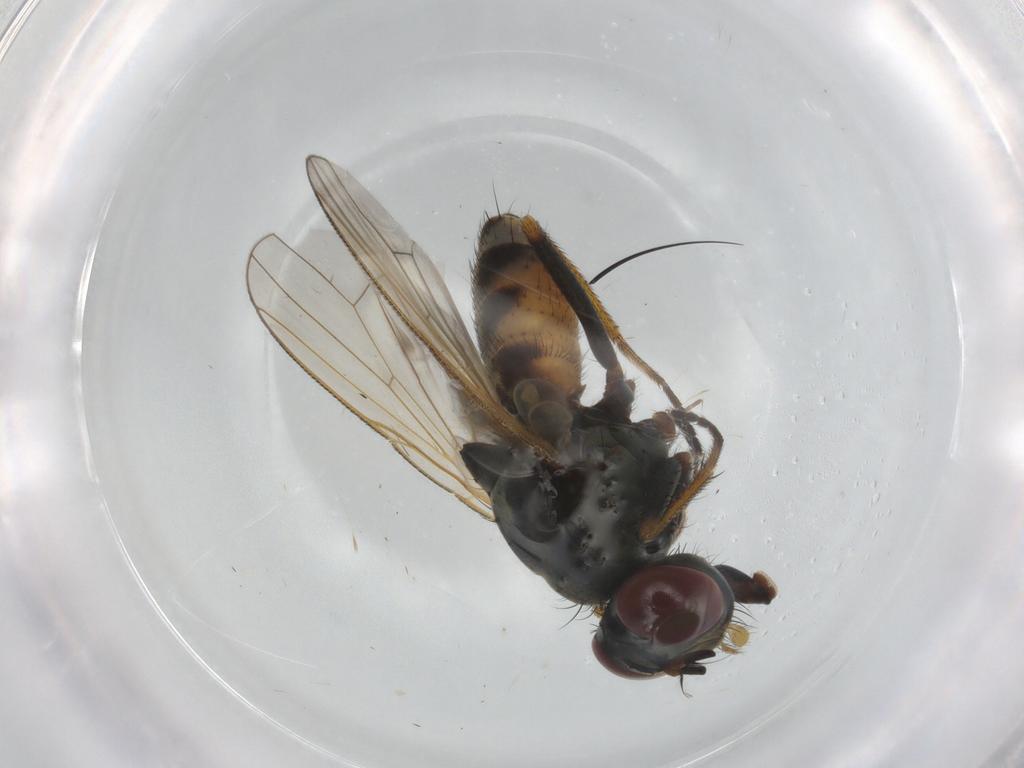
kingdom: Animalia
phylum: Arthropoda
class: Insecta
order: Diptera
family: Muscidae
